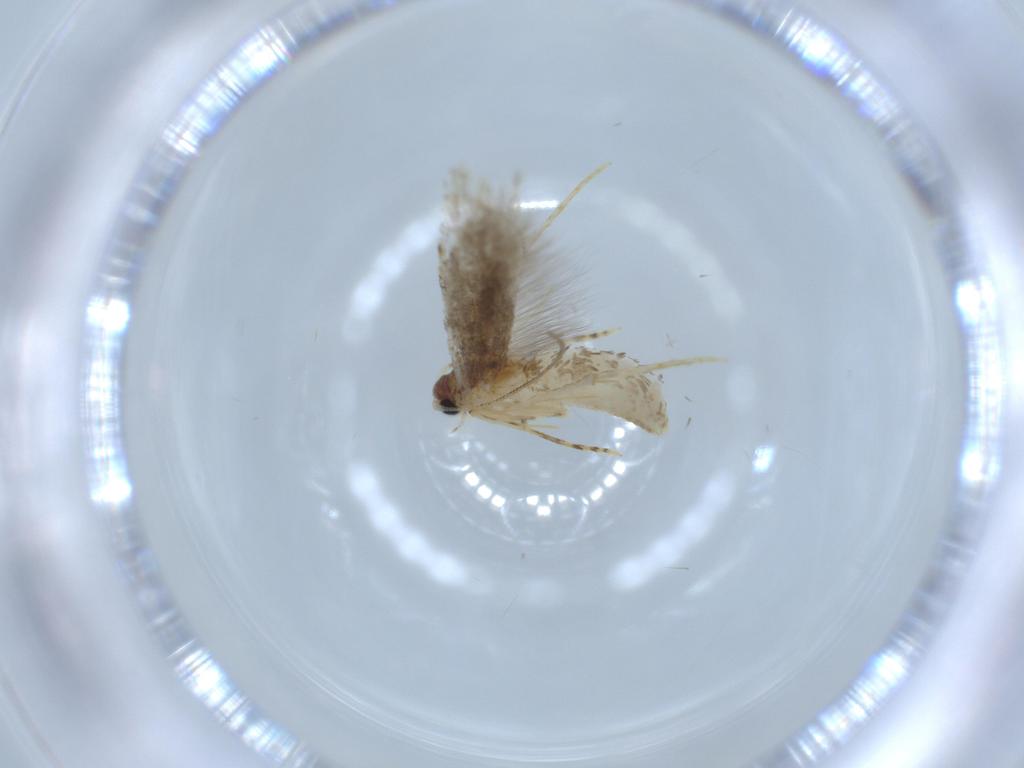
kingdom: Animalia
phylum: Arthropoda
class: Insecta
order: Lepidoptera
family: Tineidae
